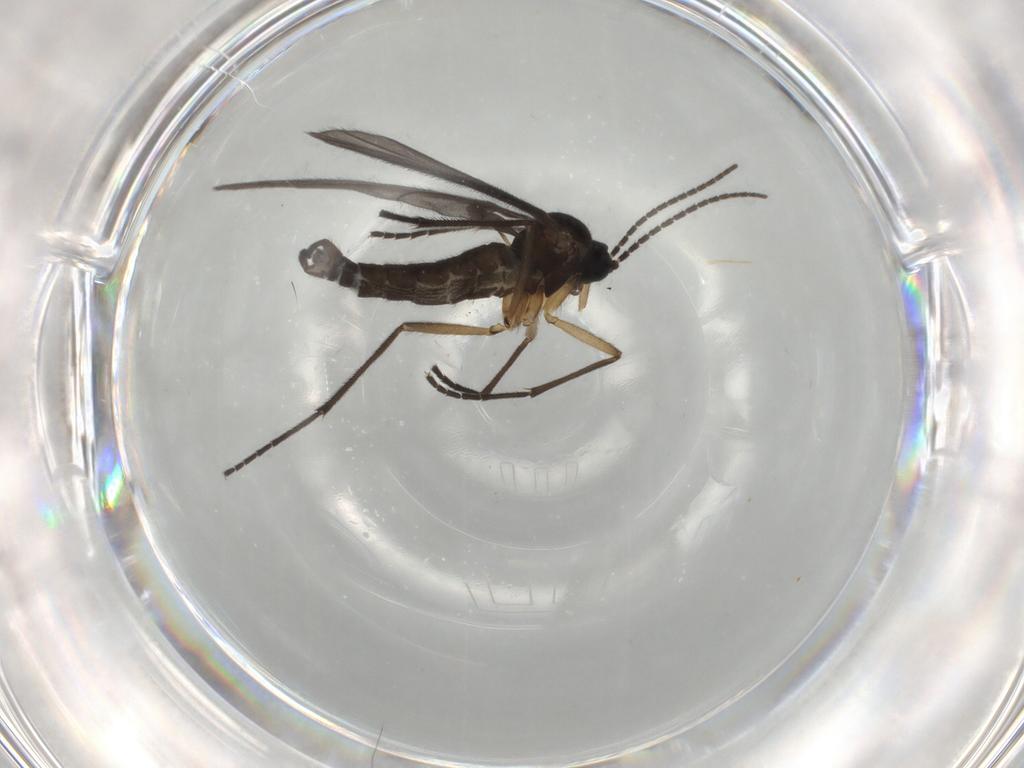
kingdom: Animalia
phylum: Arthropoda
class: Insecta
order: Diptera
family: Sciaridae
